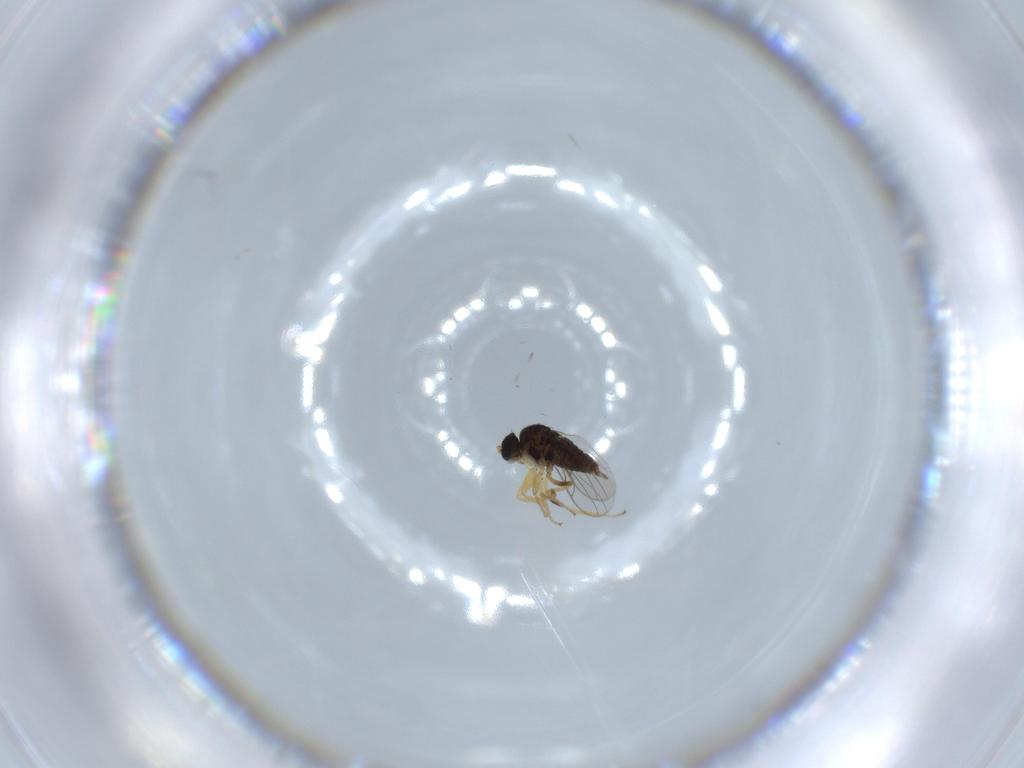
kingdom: Animalia
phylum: Arthropoda
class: Insecta
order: Diptera
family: Hybotidae
